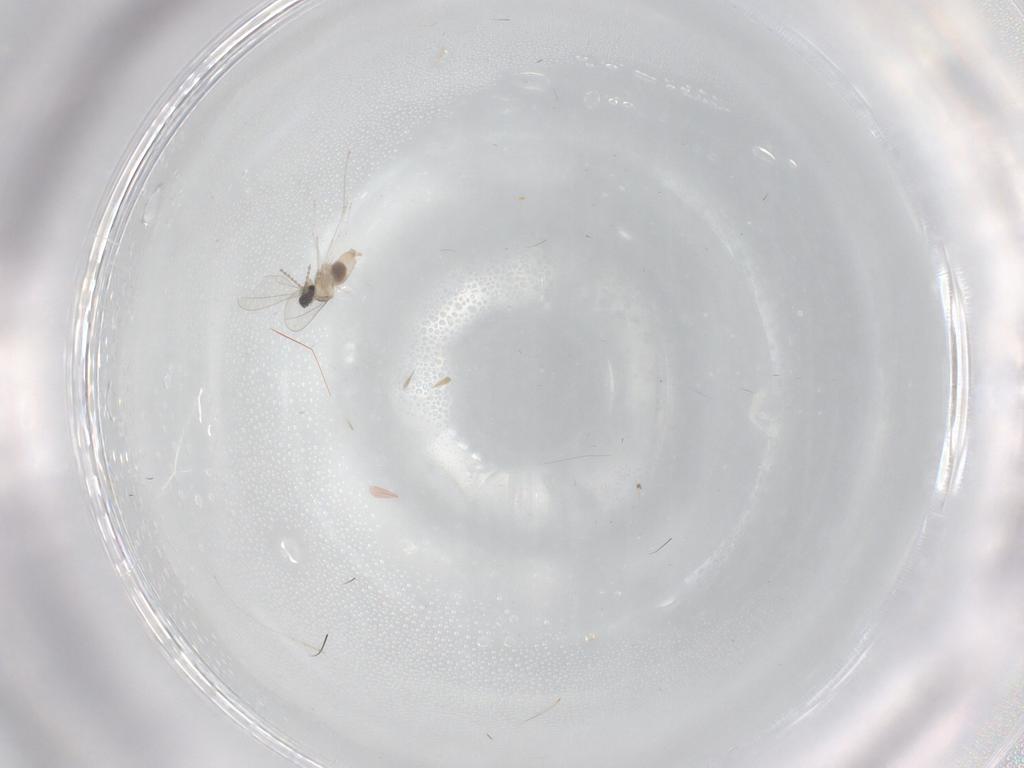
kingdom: Animalia
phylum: Arthropoda
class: Insecta
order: Diptera
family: Cecidomyiidae
